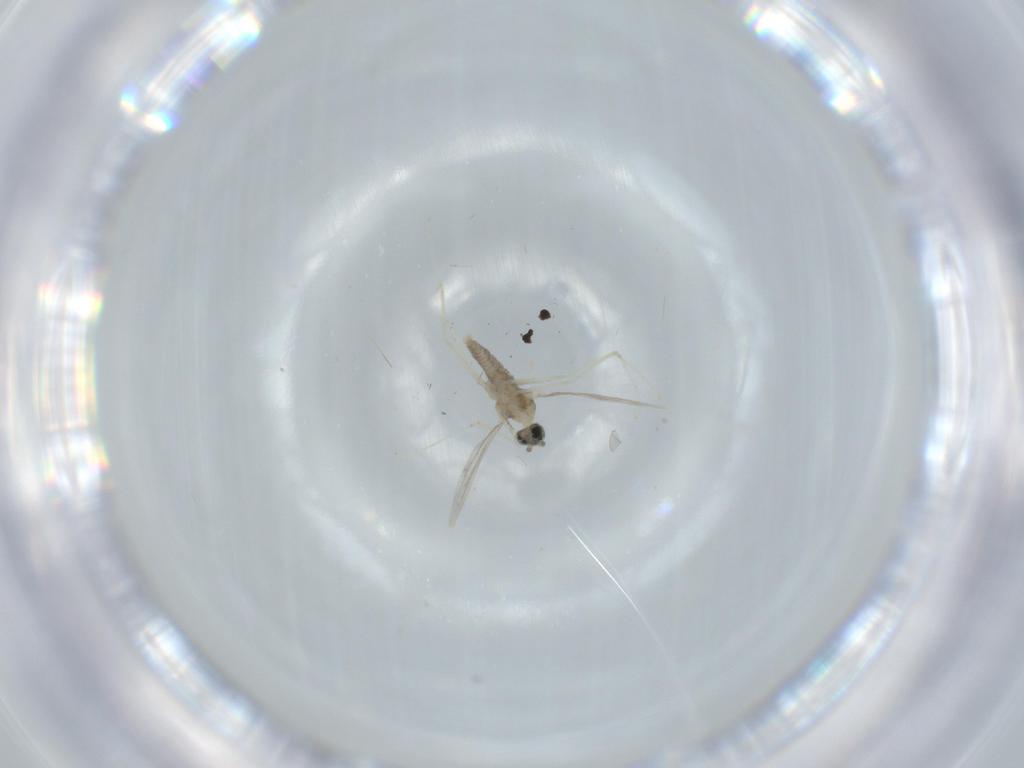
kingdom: Animalia
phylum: Arthropoda
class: Insecta
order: Diptera
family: Cecidomyiidae
